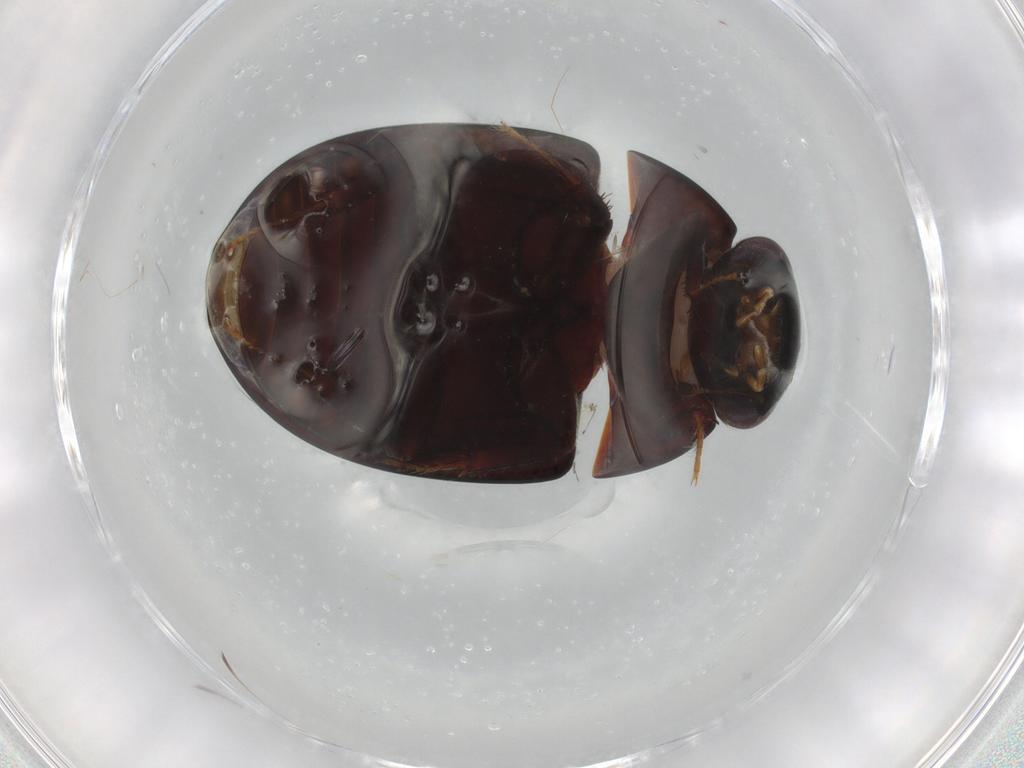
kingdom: Animalia
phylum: Arthropoda
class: Insecta
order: Coleoptera
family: Hydrophilidae
